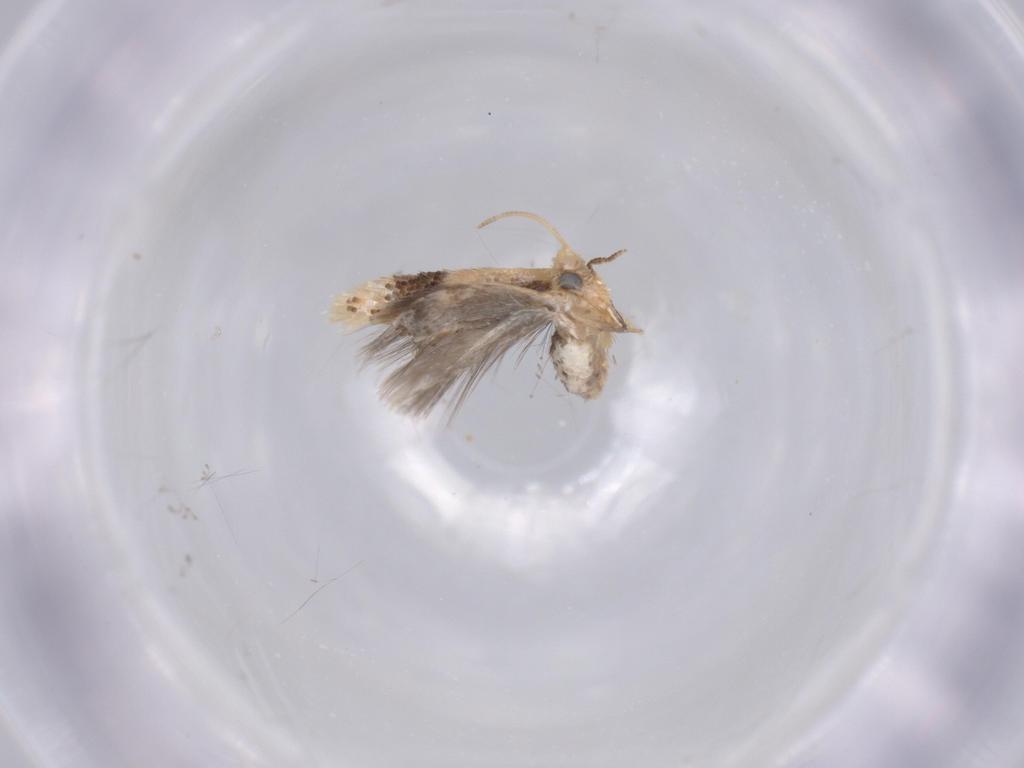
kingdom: Animalia
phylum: Arthropoda
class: Insecta
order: Lepidoptera
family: Nepticulidae
